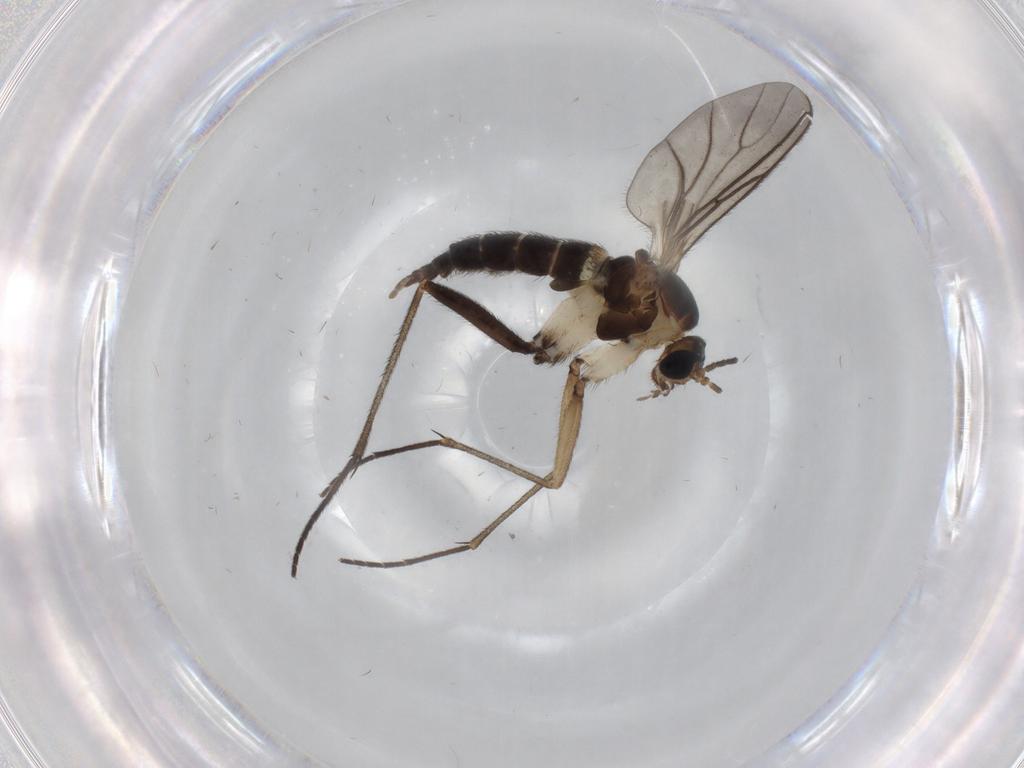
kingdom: Animalia
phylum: Arthropoda
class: Insecta
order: Diptera
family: Sciaridae
